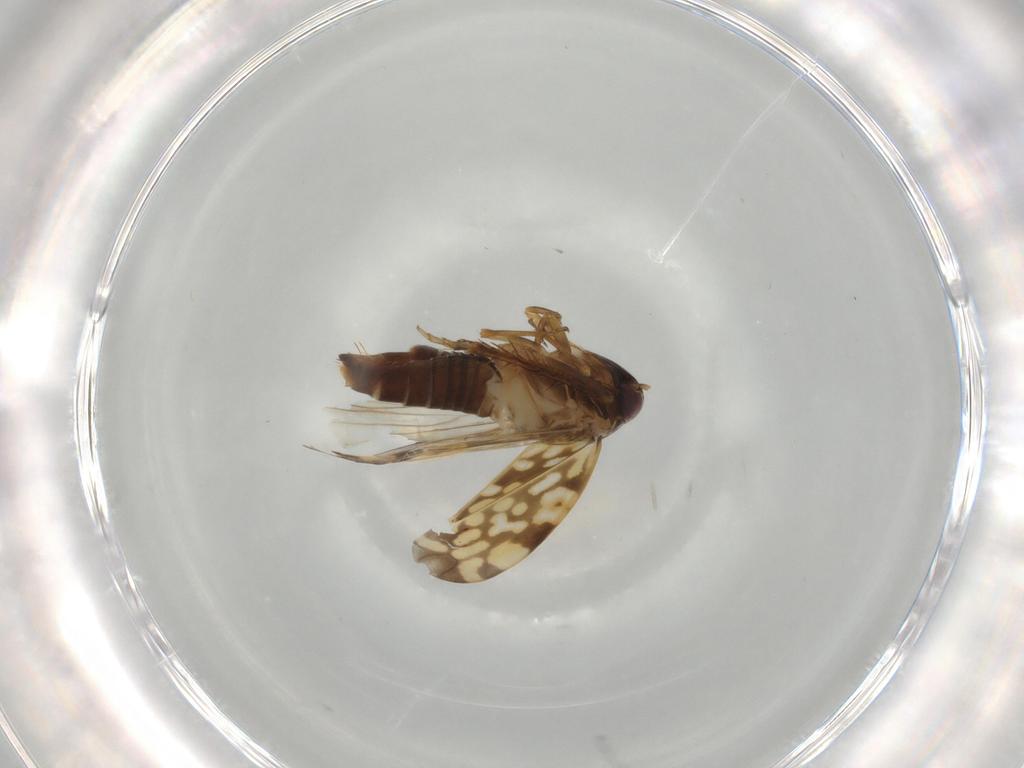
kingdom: Animalia
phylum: Arthropoda
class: Insecta
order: Hemiptera
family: Cicadellidae
